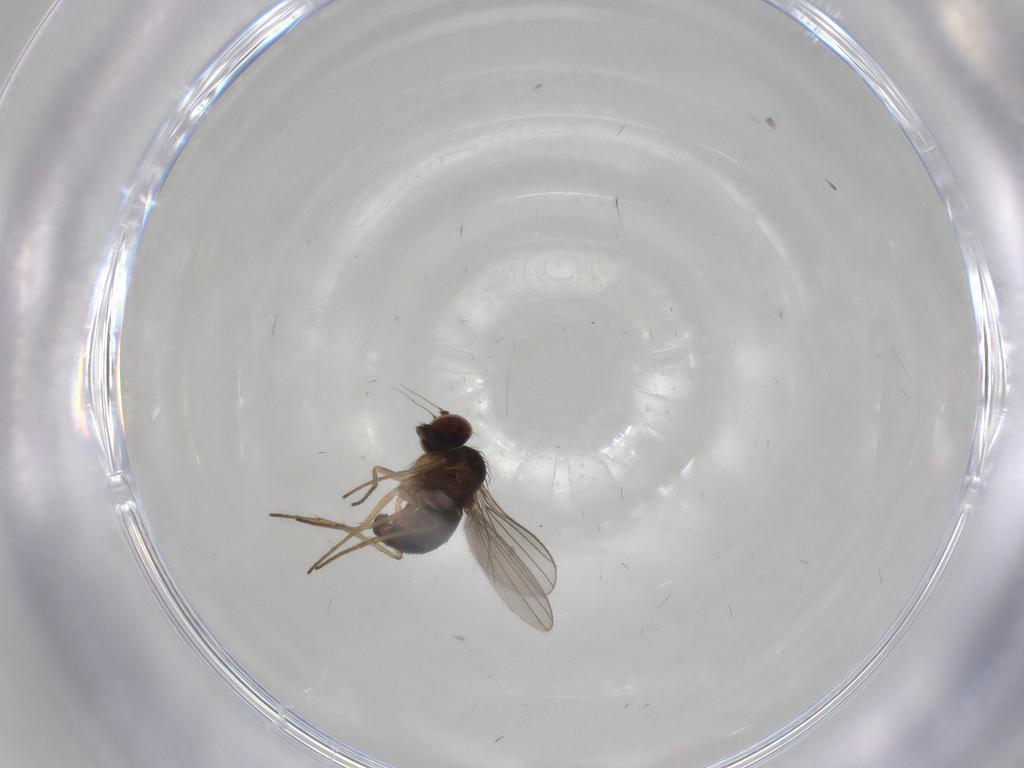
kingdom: Animalia
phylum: Arthropoda
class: Insecta
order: Diptera
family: Dolichopodidae
